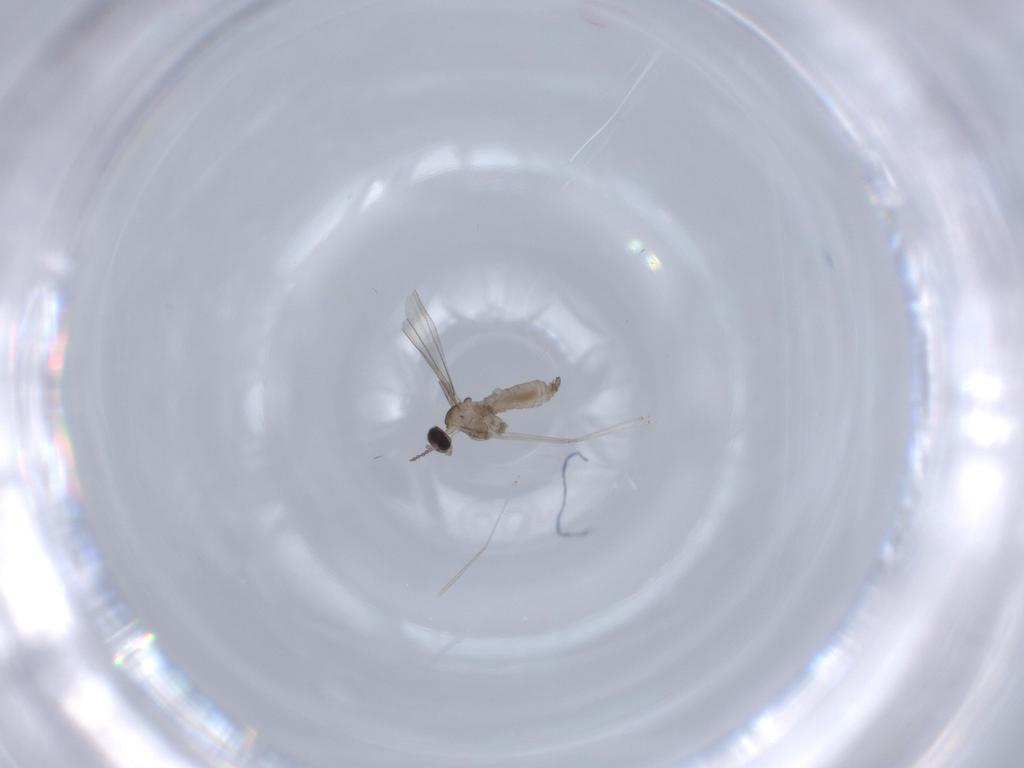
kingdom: Animalia
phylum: Arthropoda
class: Insecta
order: Diptera
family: Cecidomyiidae
